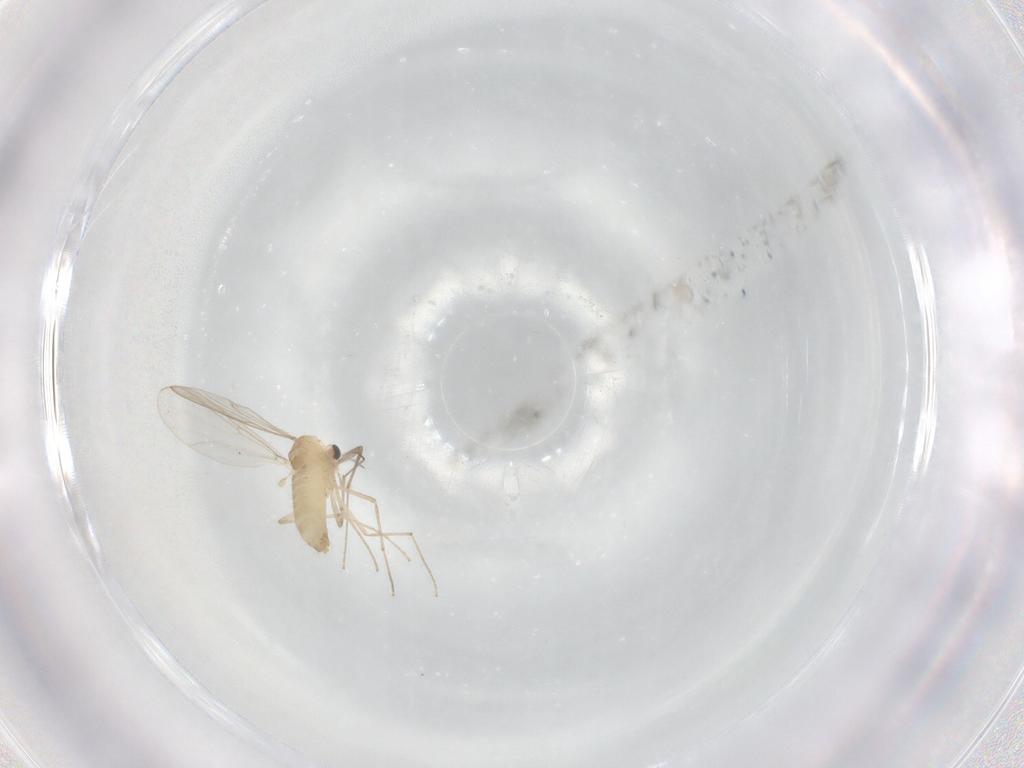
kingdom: Animalia
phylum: Arthropoda
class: Insecta
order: Diptera
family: Chironomidae
